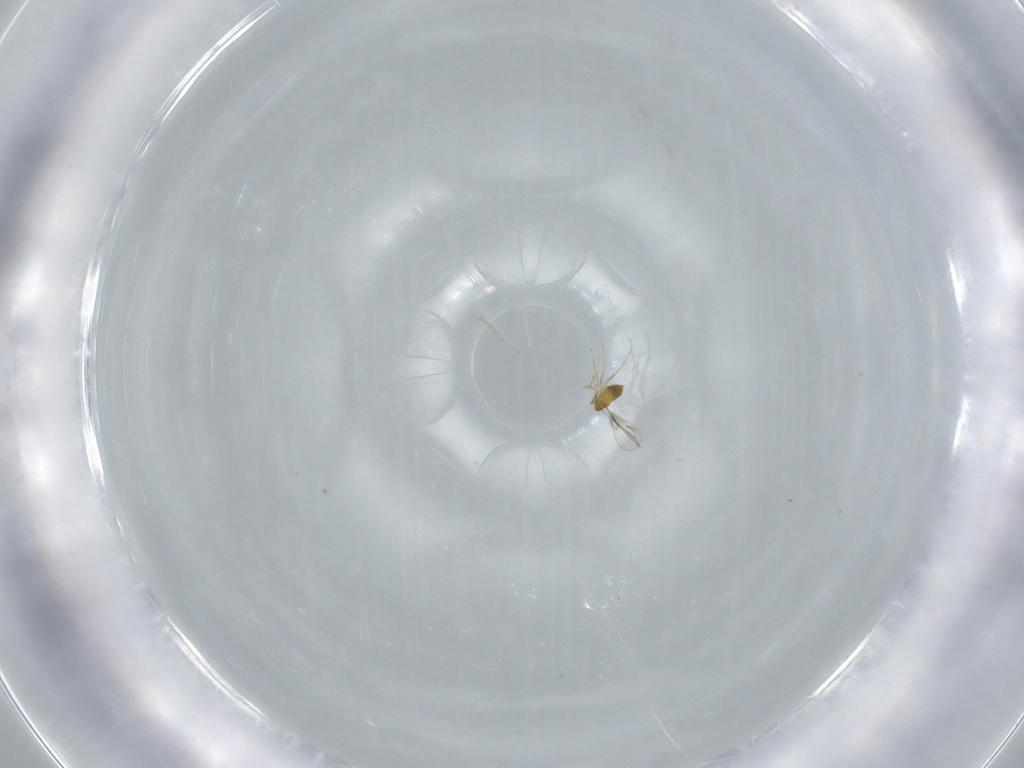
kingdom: Animalia
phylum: Arthropoda
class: Insecta
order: Hymenoptera
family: Trichogrammatidae
